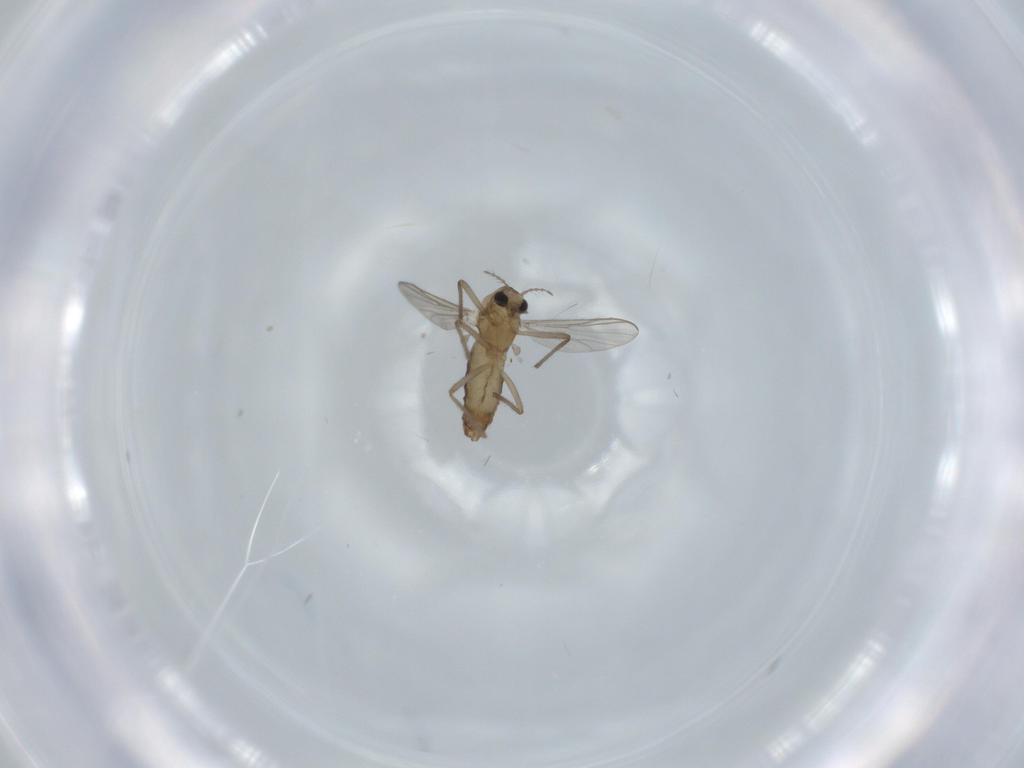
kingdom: Animalia
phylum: Arthropoda
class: Insecta
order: Diptera
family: Chironomidae
